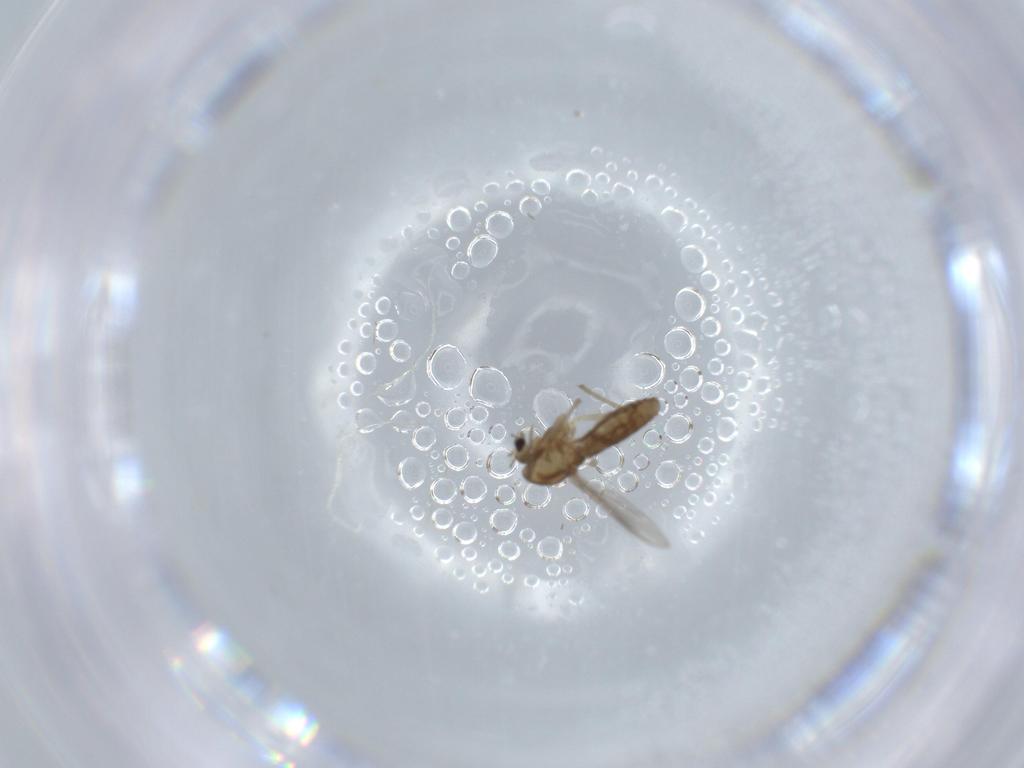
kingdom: Animalia
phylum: Arthropoda
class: Insecta
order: Diptera
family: Chironomidae
